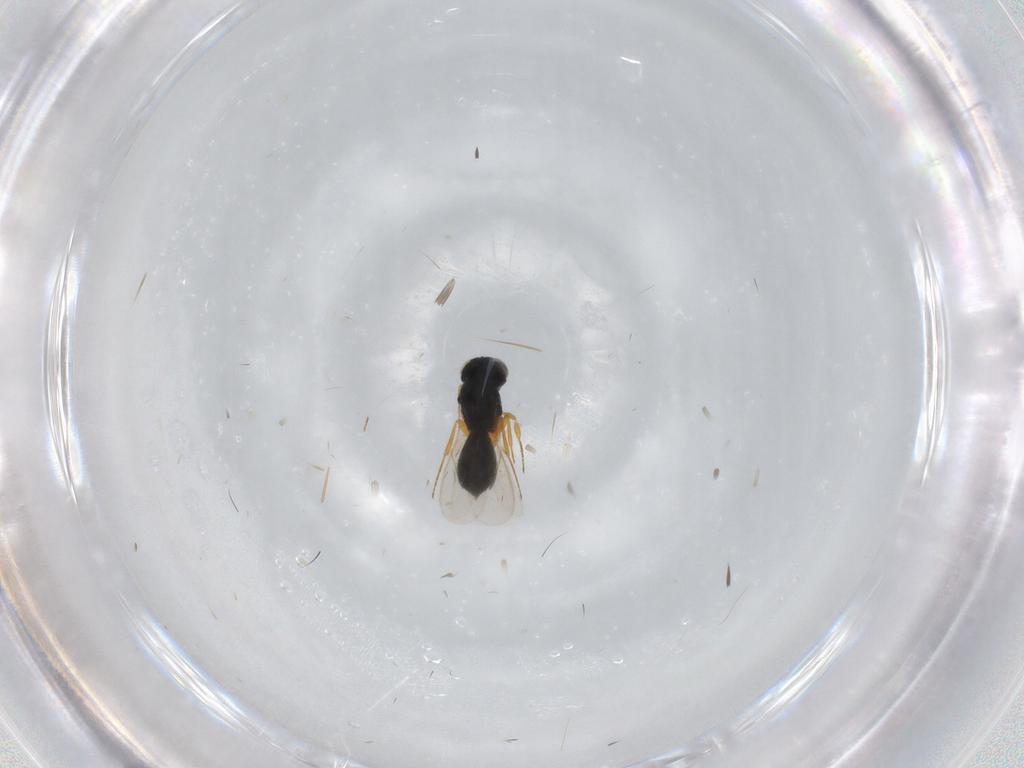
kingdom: Animalia
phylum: Arthropoda
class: Insecta
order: Hymenoptera
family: Scelionidae
